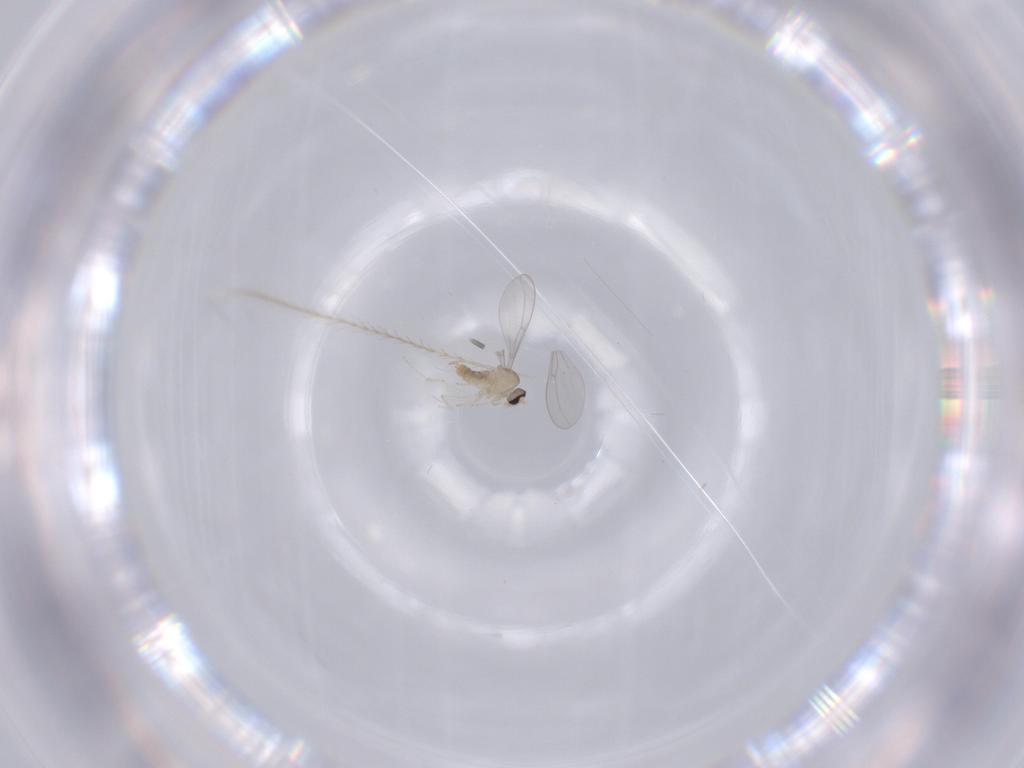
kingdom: Animalia
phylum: Arthropoda
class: Insecta
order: Diptera
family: Cecidomyiidae
